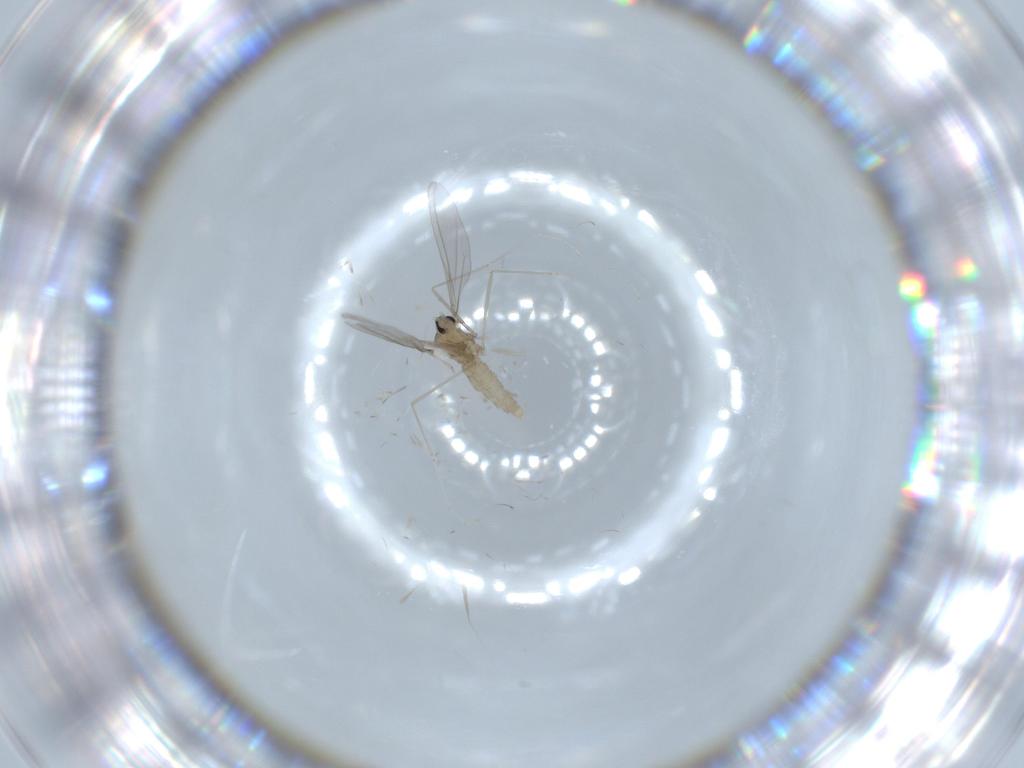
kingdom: Animalia
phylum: Arthropoda
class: Insecta
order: Diptera
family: Cecidomyiidae
